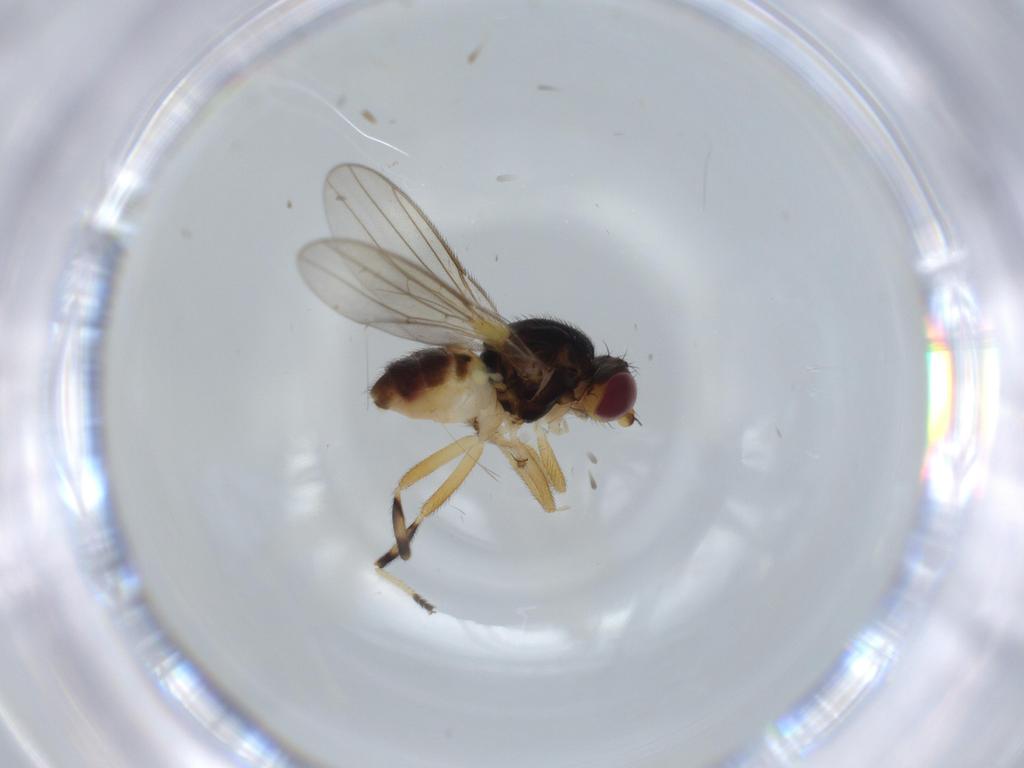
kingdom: Animalia
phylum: Arthropoda
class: Insecta
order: Diptera
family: Chloropidae
